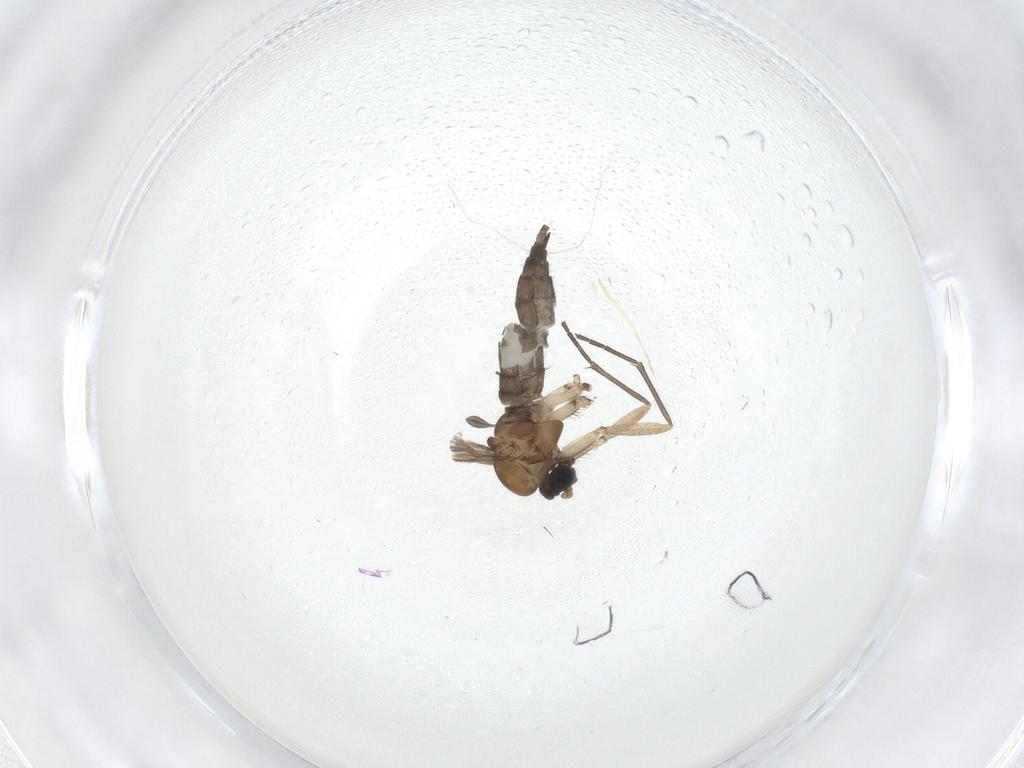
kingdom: Animalia
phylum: Arthropoda
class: Insecta
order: Diptera
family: Sciaridae
